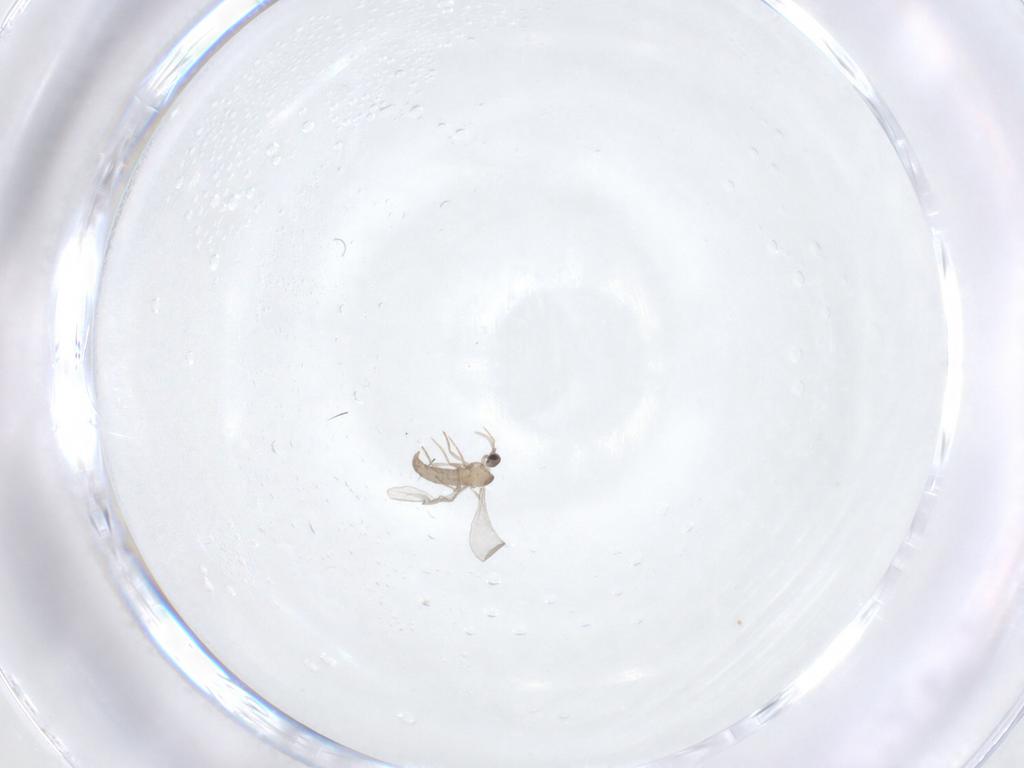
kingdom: Animalia
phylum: Arthropoda
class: Insecta
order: Diptera
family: Cecidomyiidae
